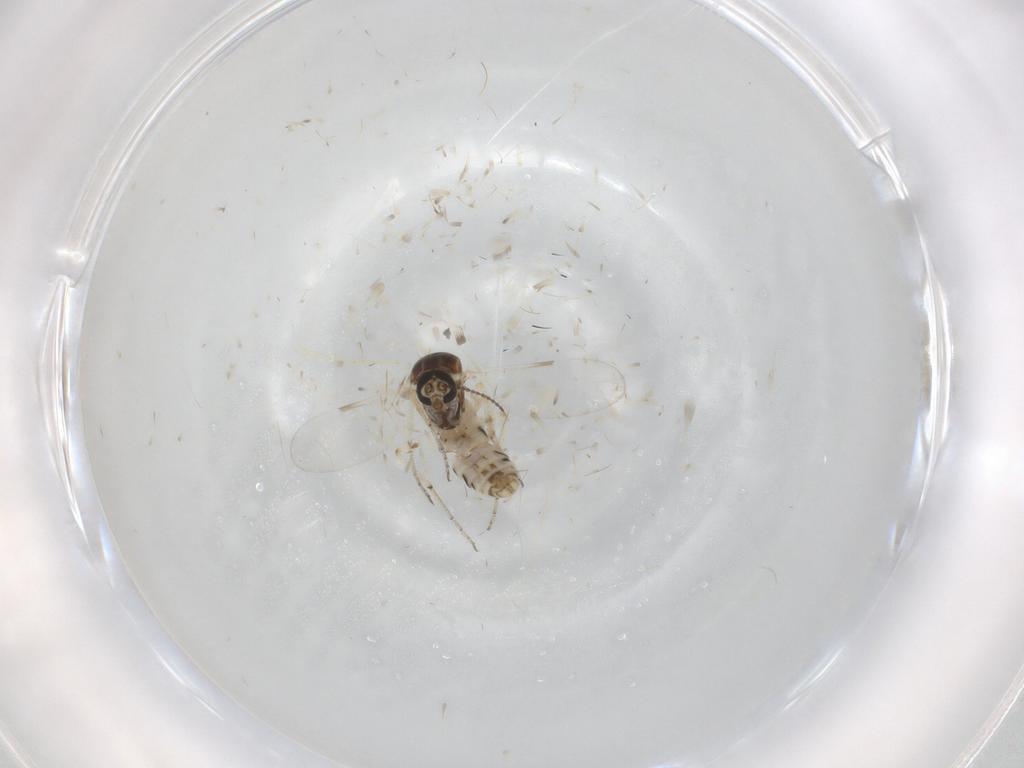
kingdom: Animalia
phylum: Arthropoda
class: Insecta
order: Diptera
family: Ceratopogonidae
